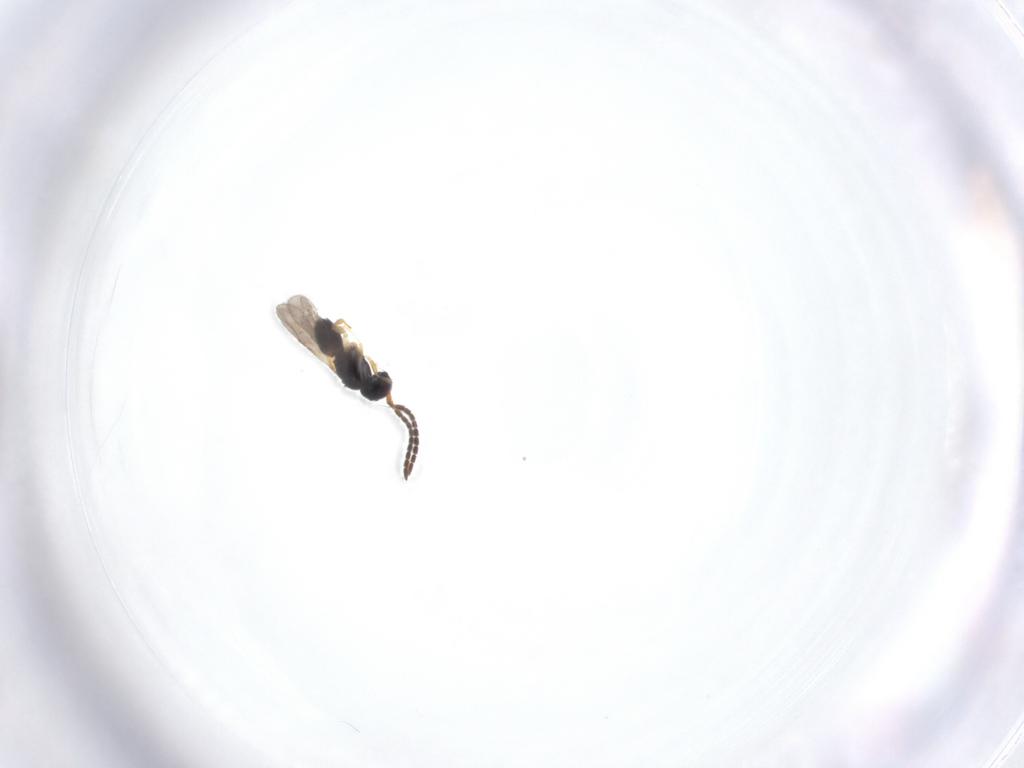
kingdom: Animalia
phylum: Arthropoda
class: Insecta
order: Hymenoptera
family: Ceraphronidae
